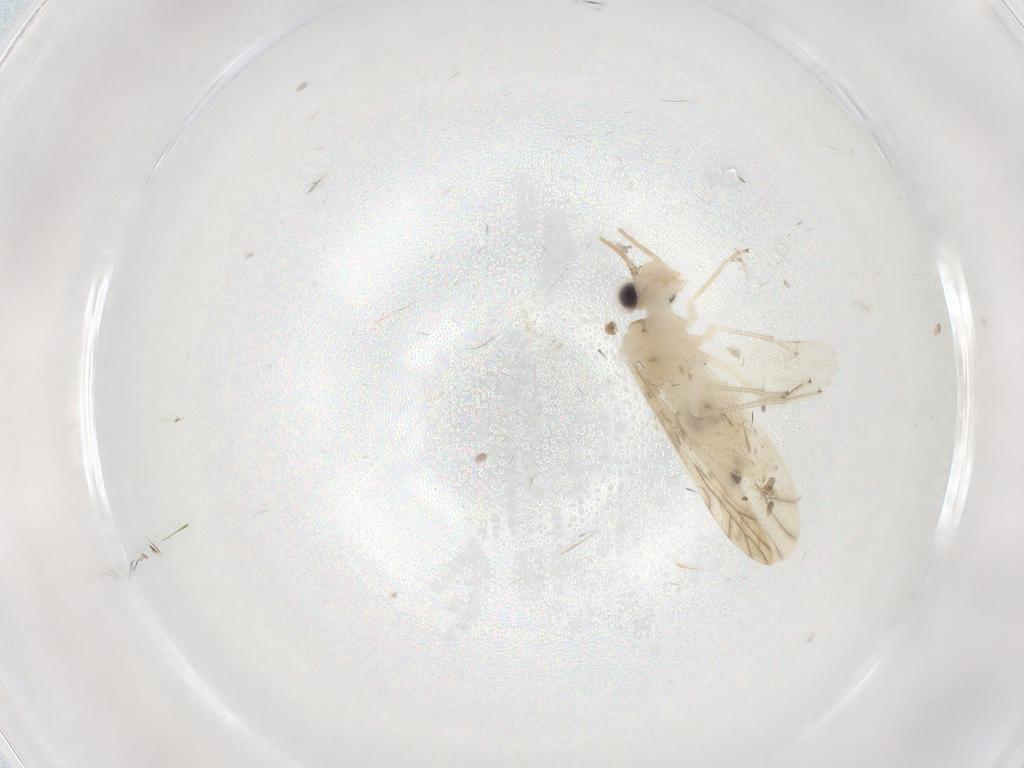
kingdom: Animalia
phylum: Arthropoda
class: Insecta
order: Psocodea
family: Caeciliusidae
